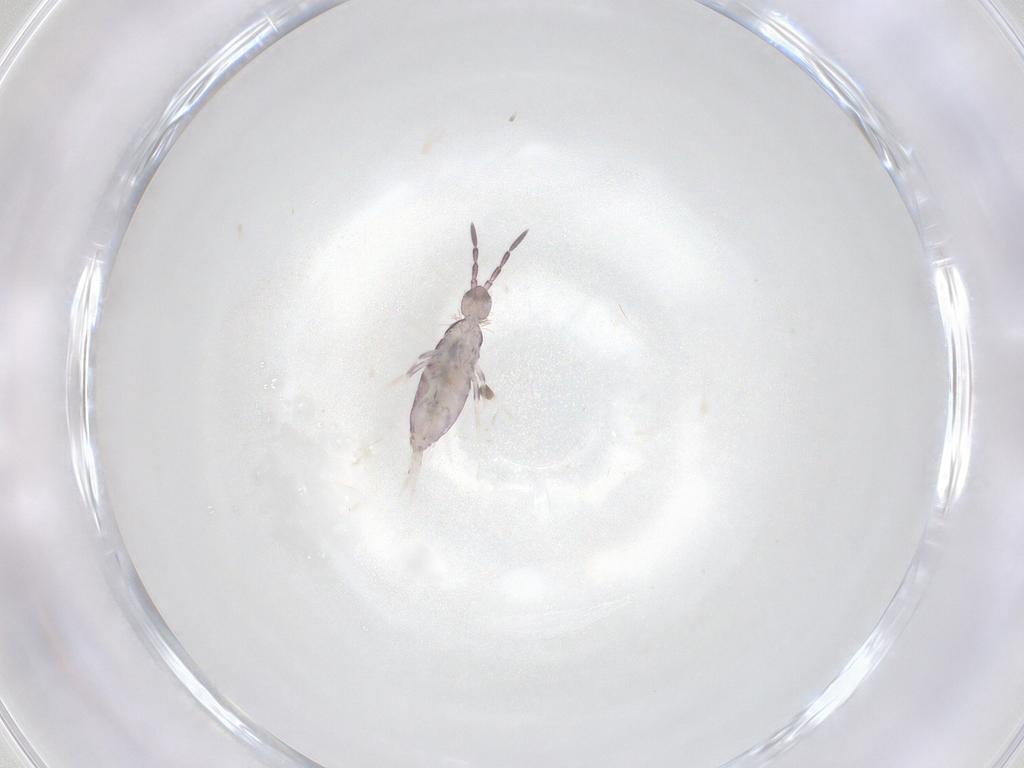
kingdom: Animalia
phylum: Arthropoda
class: Collembola
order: Poduromorpha
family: Hypogastruridae
